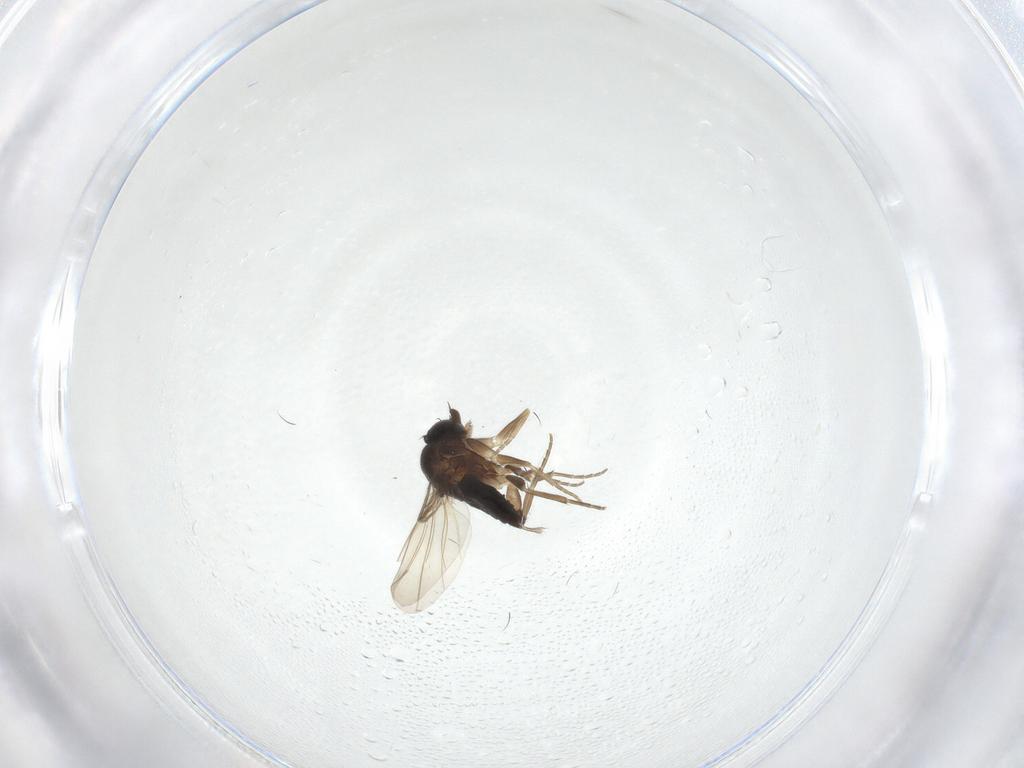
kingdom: Animalia
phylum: Arthropoda
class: Insecta
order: Diptera
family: Phoridae
